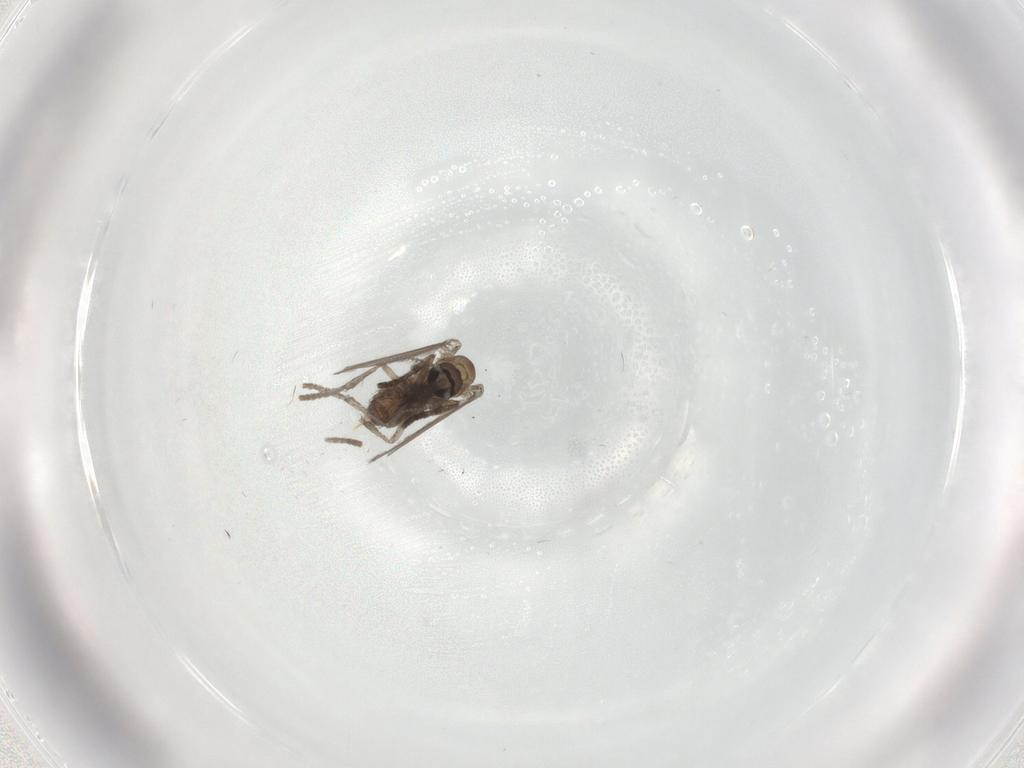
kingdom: Animalia
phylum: Arthropoda
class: Insecta
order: Diptera
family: Psychodidae
